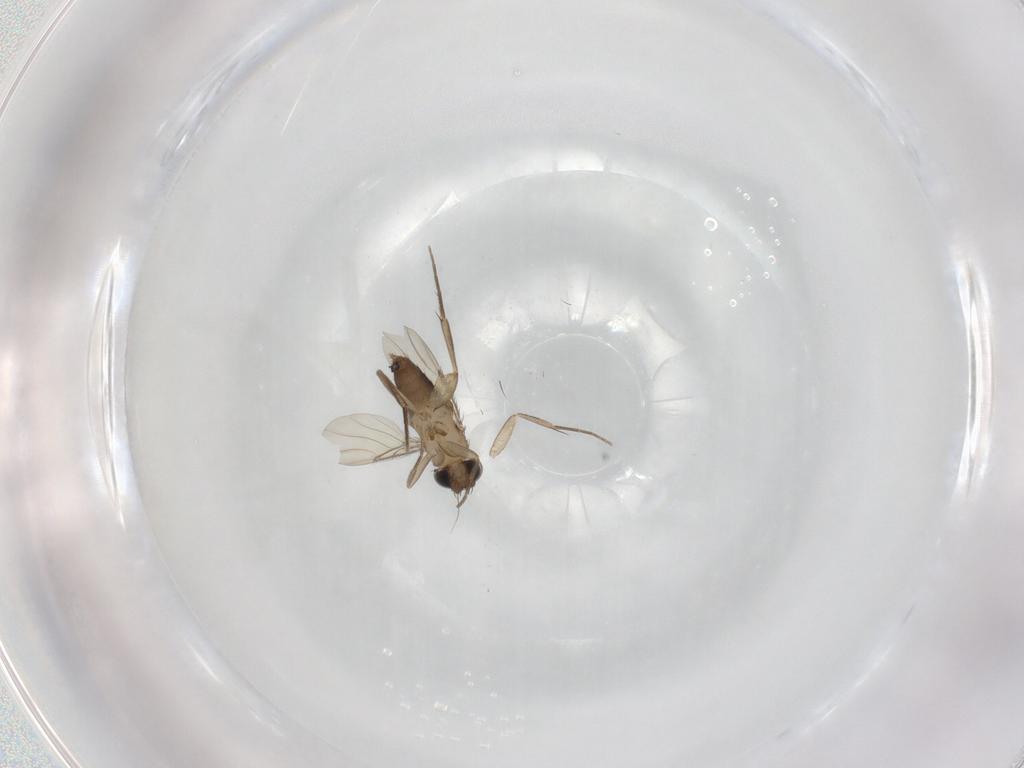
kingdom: Animalia
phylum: Arthropoda
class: Insecta
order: Diptera
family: Phoridae
